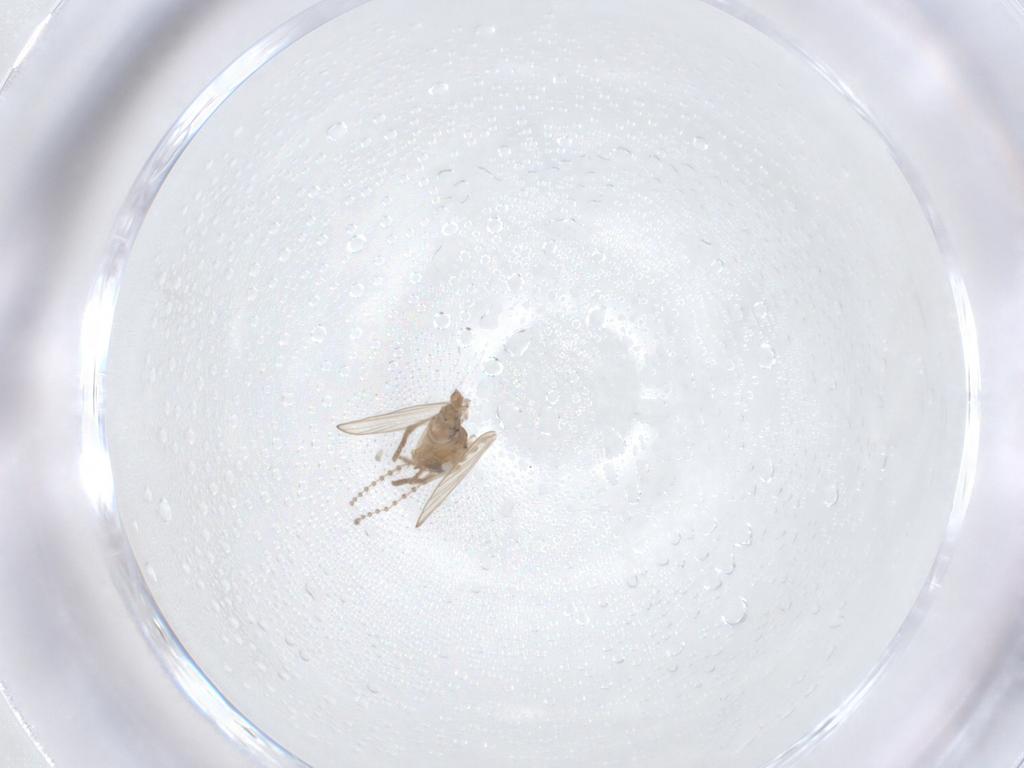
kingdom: Animalia
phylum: Arthropoda
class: Insecta
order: Diptera
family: Psychodidae
